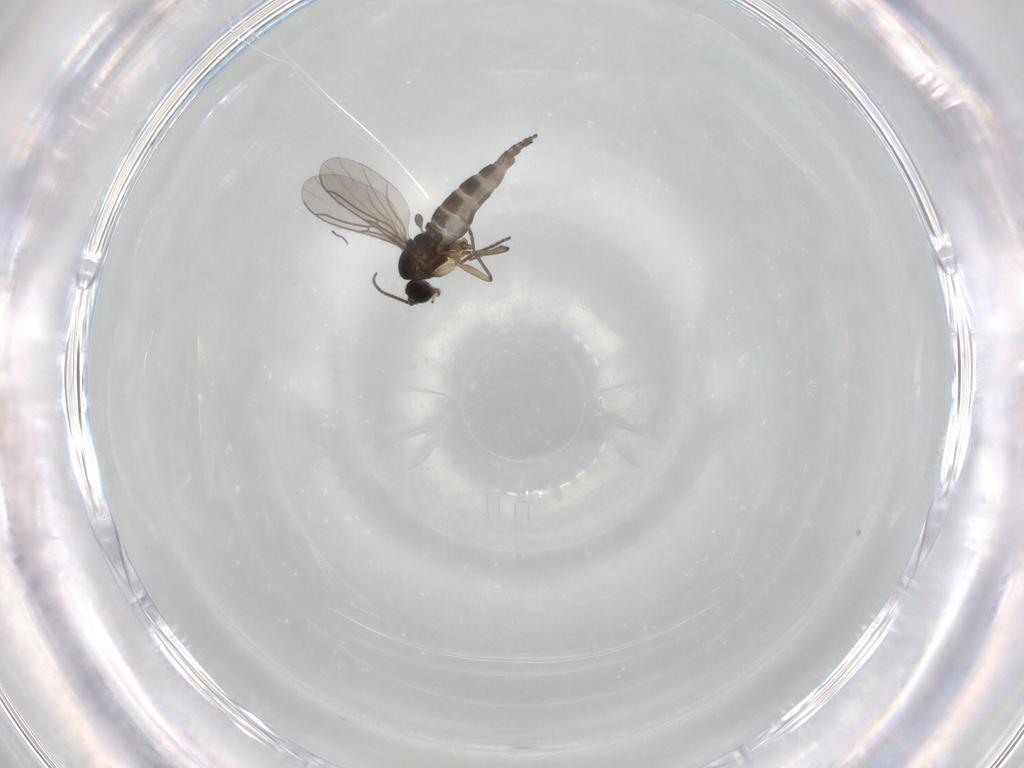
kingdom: Animalia
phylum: Arthropoda
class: Insecta
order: Diptera
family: Sciaridae
